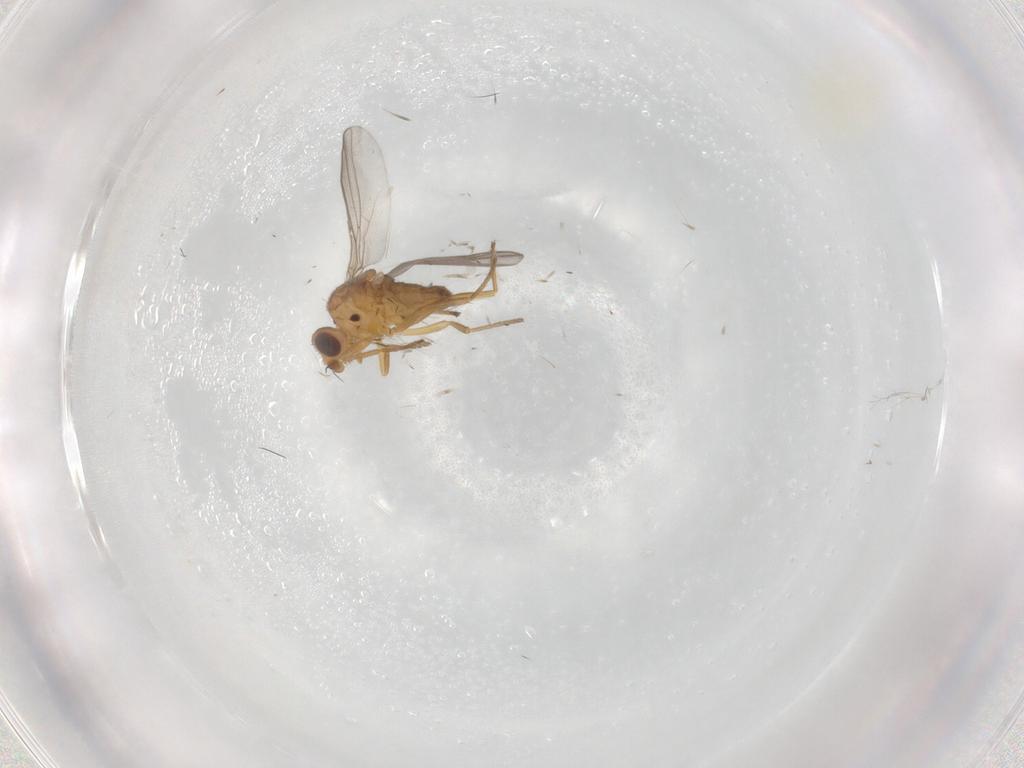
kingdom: Animalia
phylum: Arthropoda
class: Insecta
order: Diptera
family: Chloropidae
